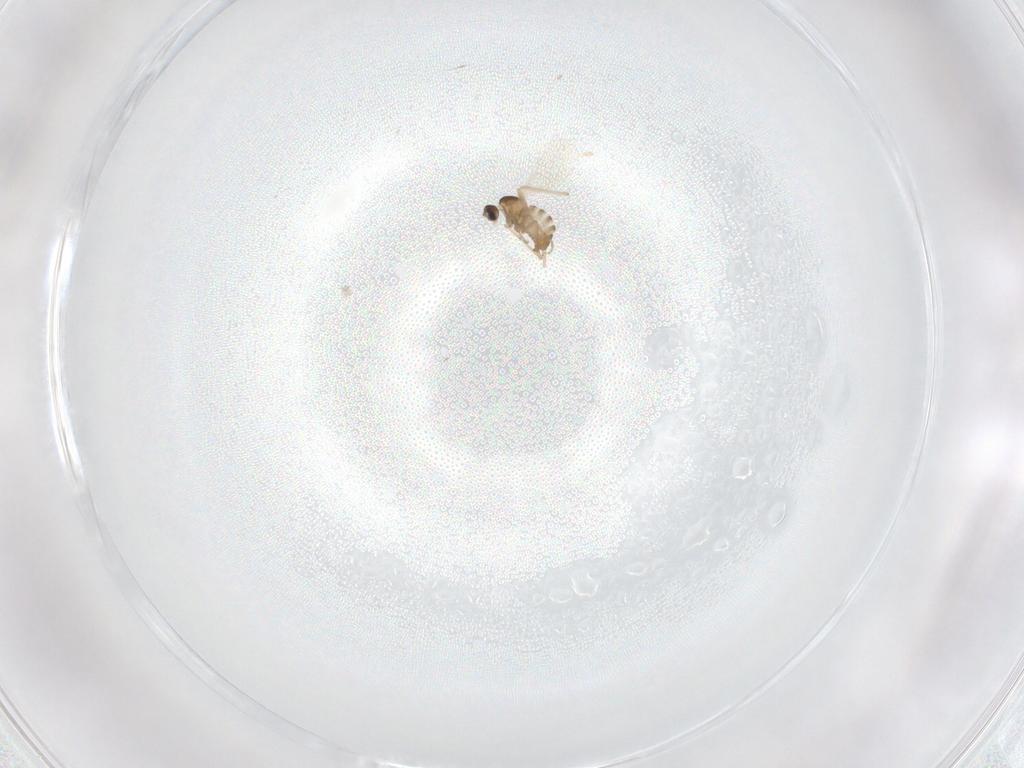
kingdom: Animalia
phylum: Arthropoda
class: Insecta
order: Diptera
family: Cecidomyiidae
